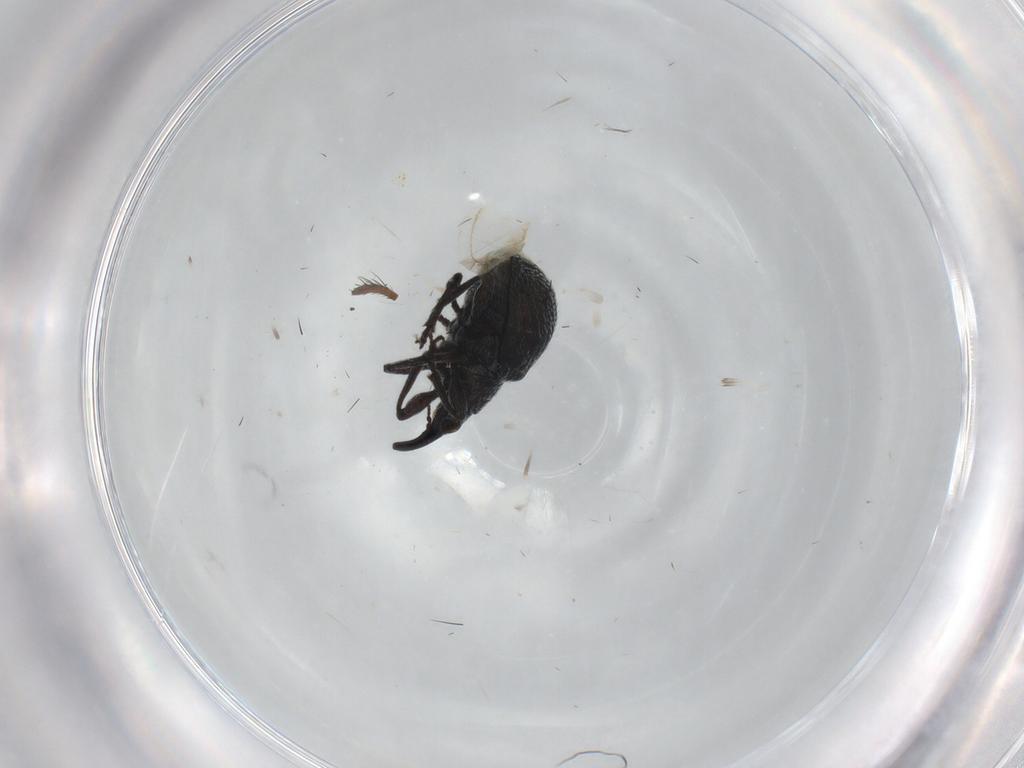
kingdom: Animalia
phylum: Arthropoda
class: Insecta
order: Coleoptera
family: Brentidae
